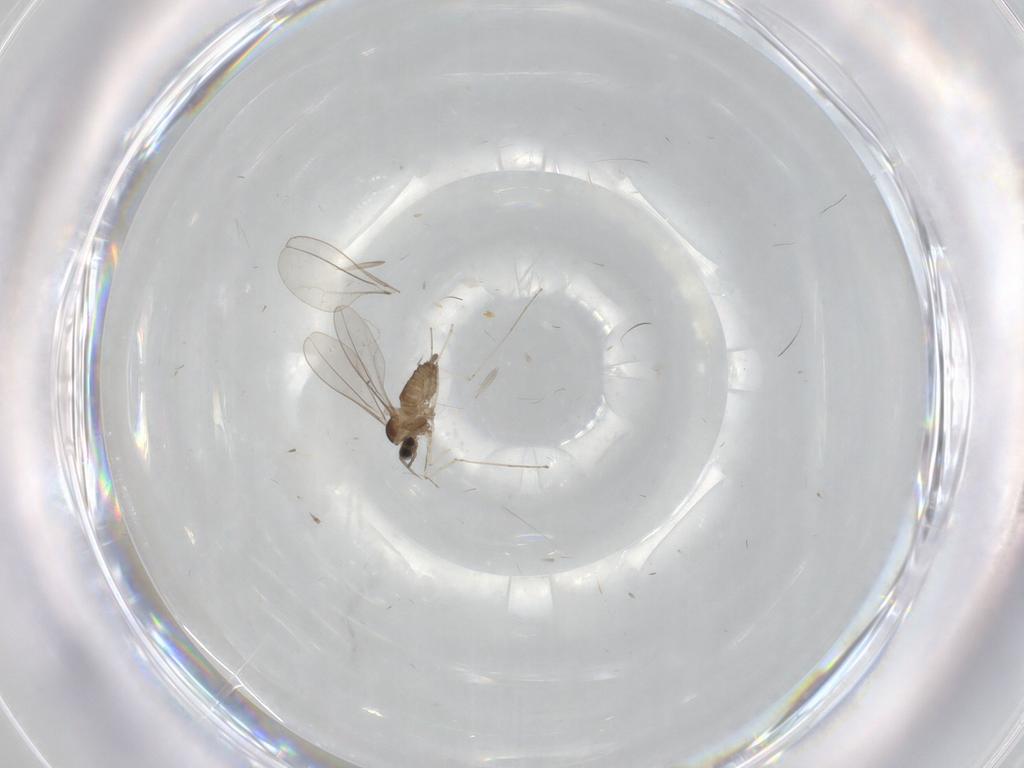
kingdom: Animalia
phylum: Arthropoda
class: Insecta
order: Diptera
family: Cecidomyiidae
